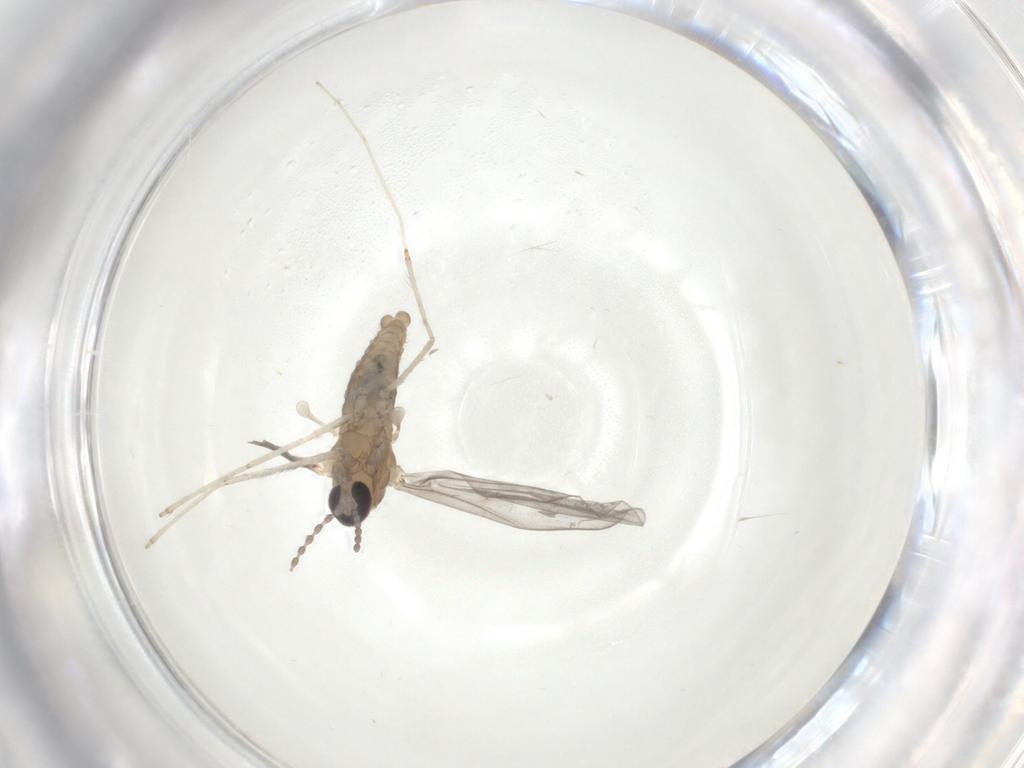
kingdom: Animalia
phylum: Arthropoda
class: Insecta
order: Diptera
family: Cecidomyiidae
